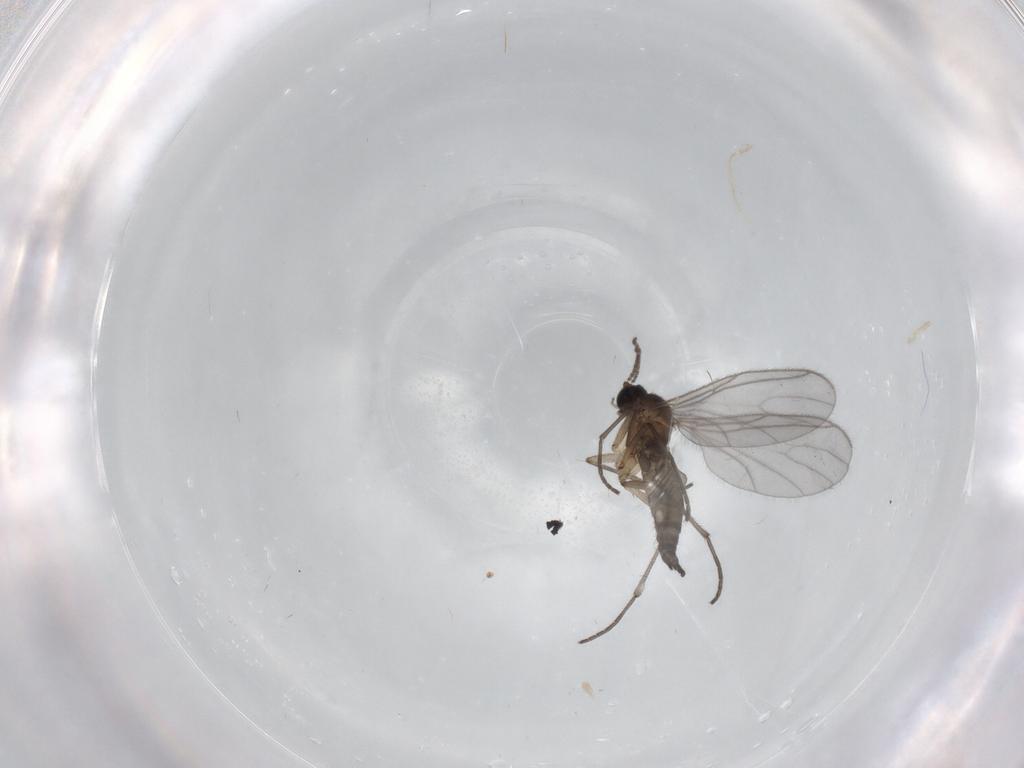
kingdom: Animalia
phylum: Arthropoda
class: Insecta
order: Diptera
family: Sciaridae
